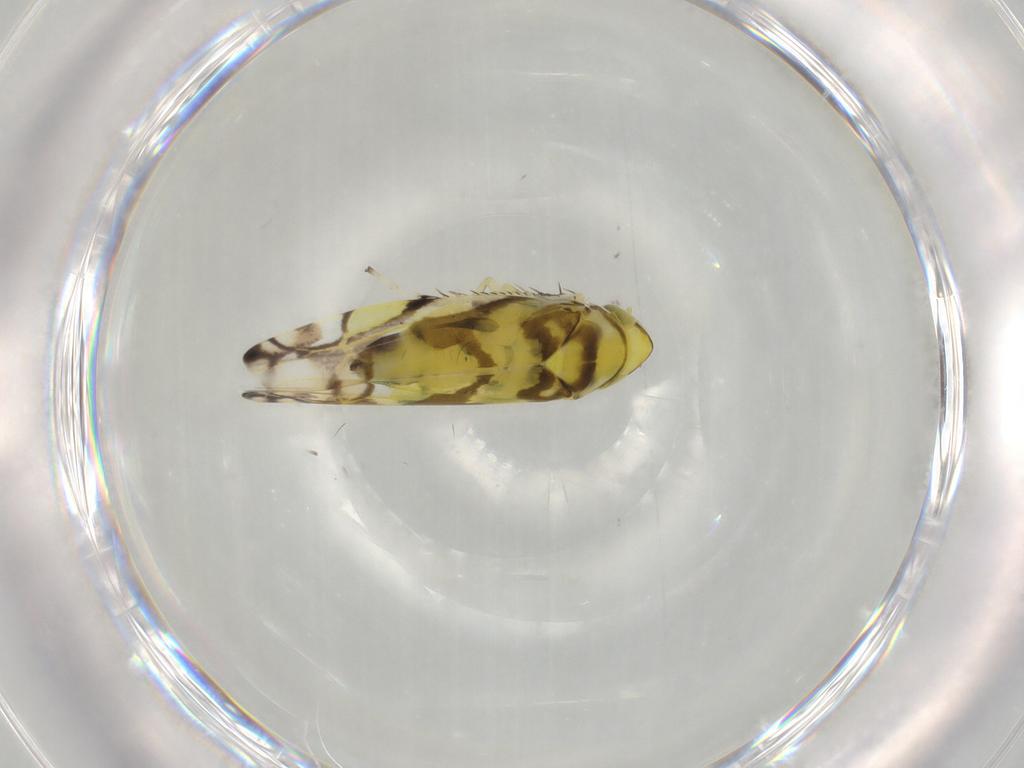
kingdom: Animalia
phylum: Arthropoda
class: Insecta
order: Hemiptera
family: Cicadellidae
